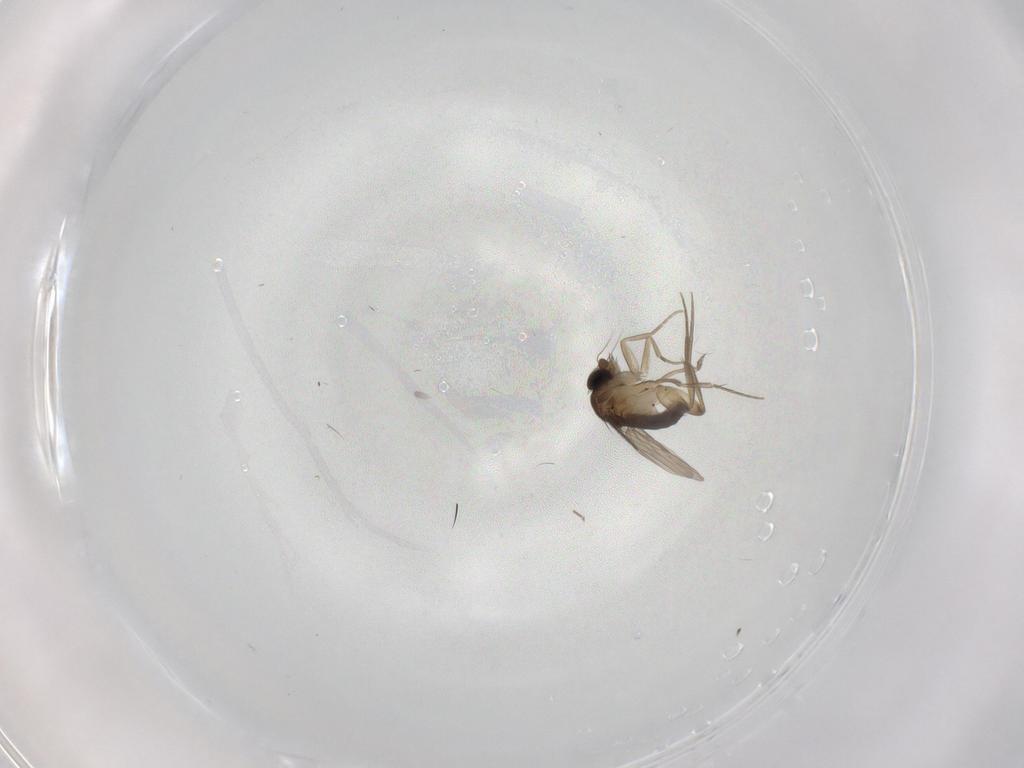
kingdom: Animalia
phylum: Arthropoda
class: Insecta
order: Diptera
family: Phoridae
